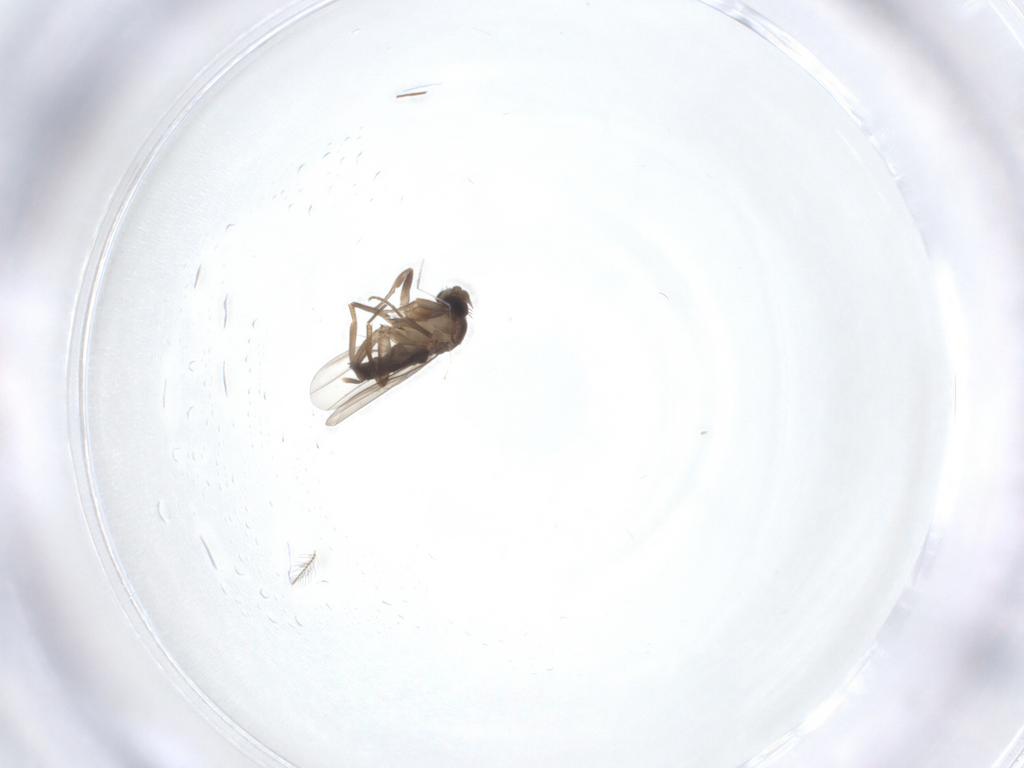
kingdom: Animalia
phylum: Arthropoda
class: Insecta
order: Diptera
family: Phoridae
